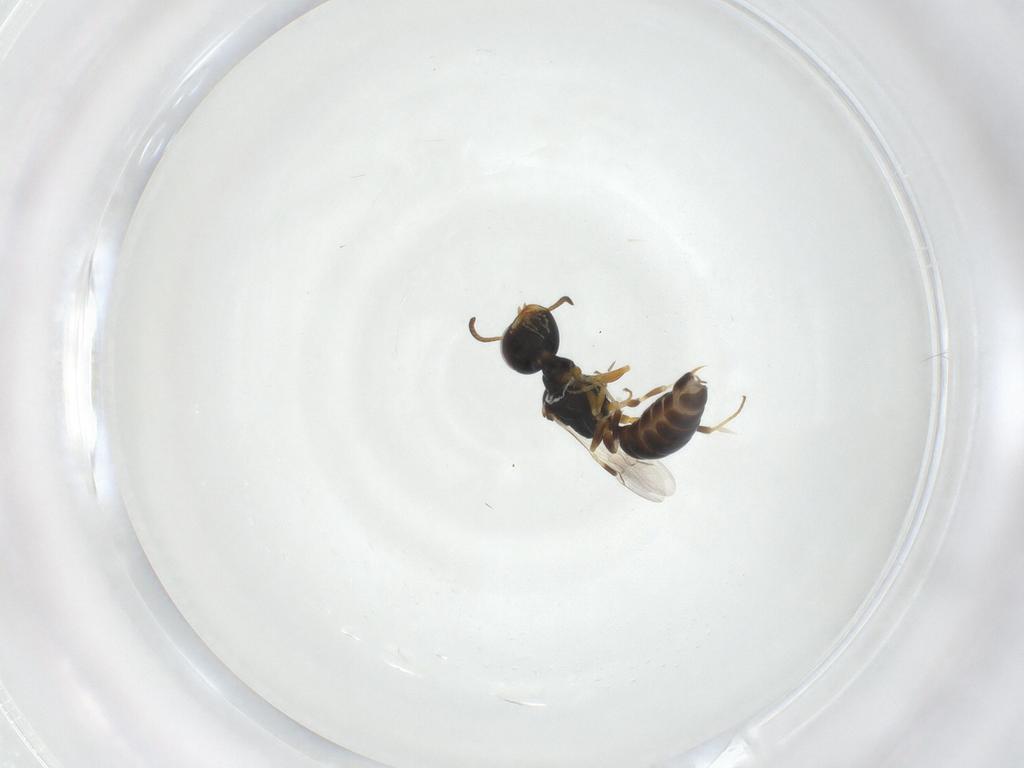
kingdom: Animalia
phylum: Arthropoda
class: Insecta
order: Hymenoptera
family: Pemphredonidae
